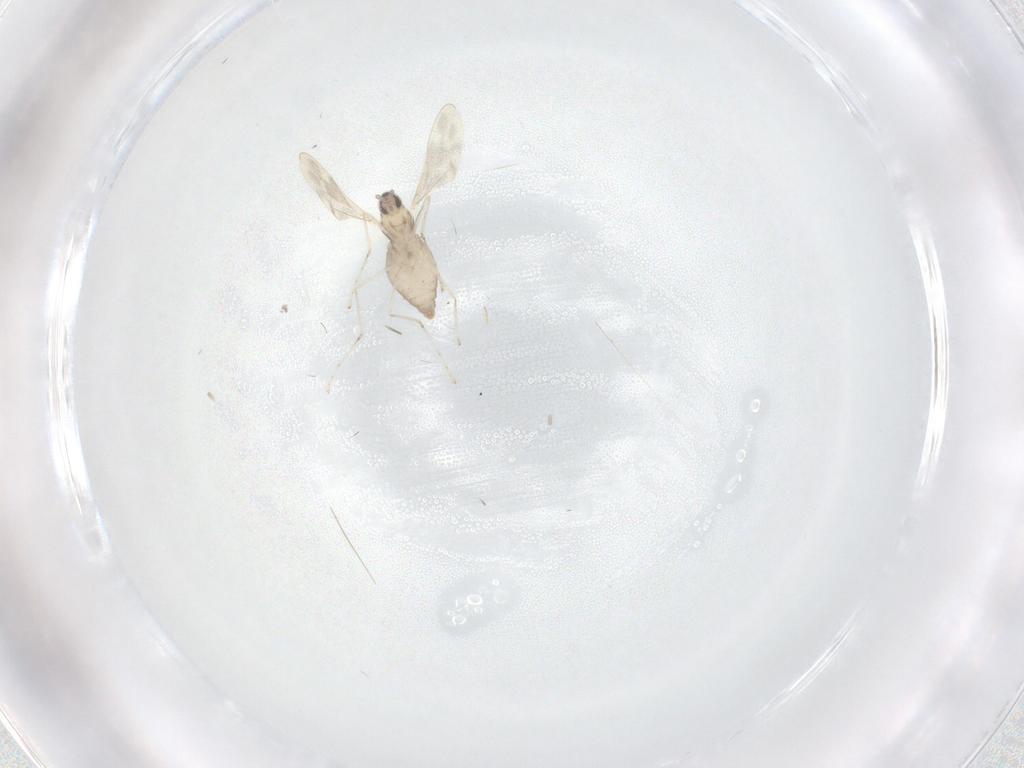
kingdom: Animalia
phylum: Arthropoda
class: Insecta
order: Diptera
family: Cecidomyiidae
